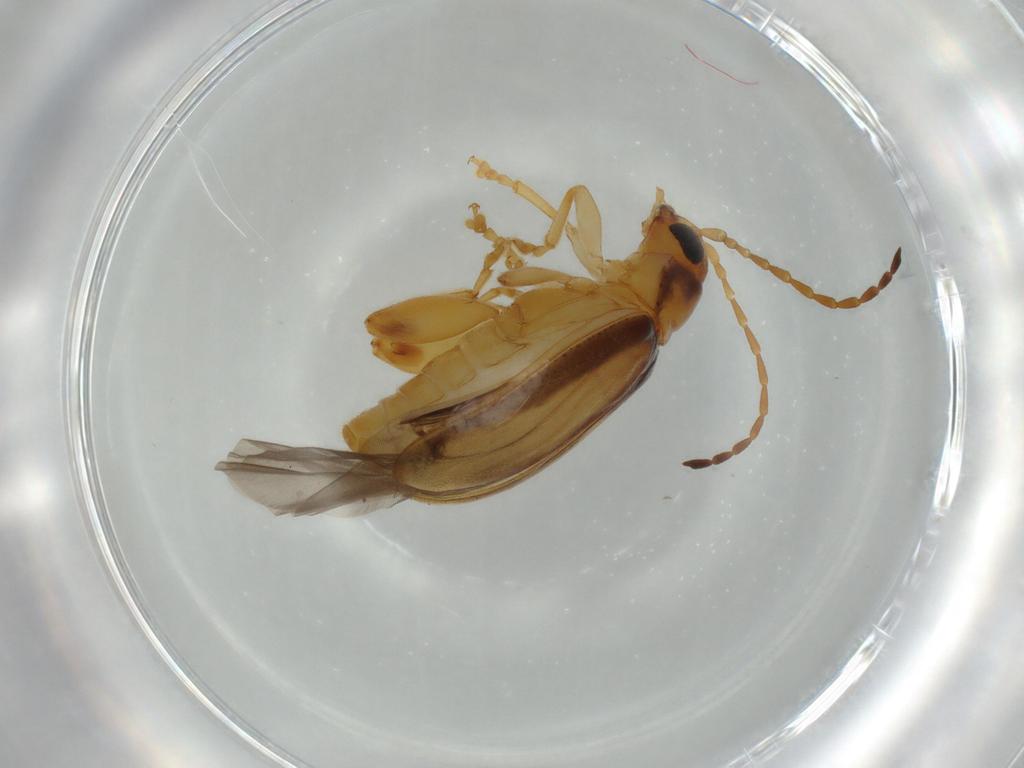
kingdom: Animalia
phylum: Arthropoda
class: Insecta
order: Coleoptera
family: Chrysomelidae
